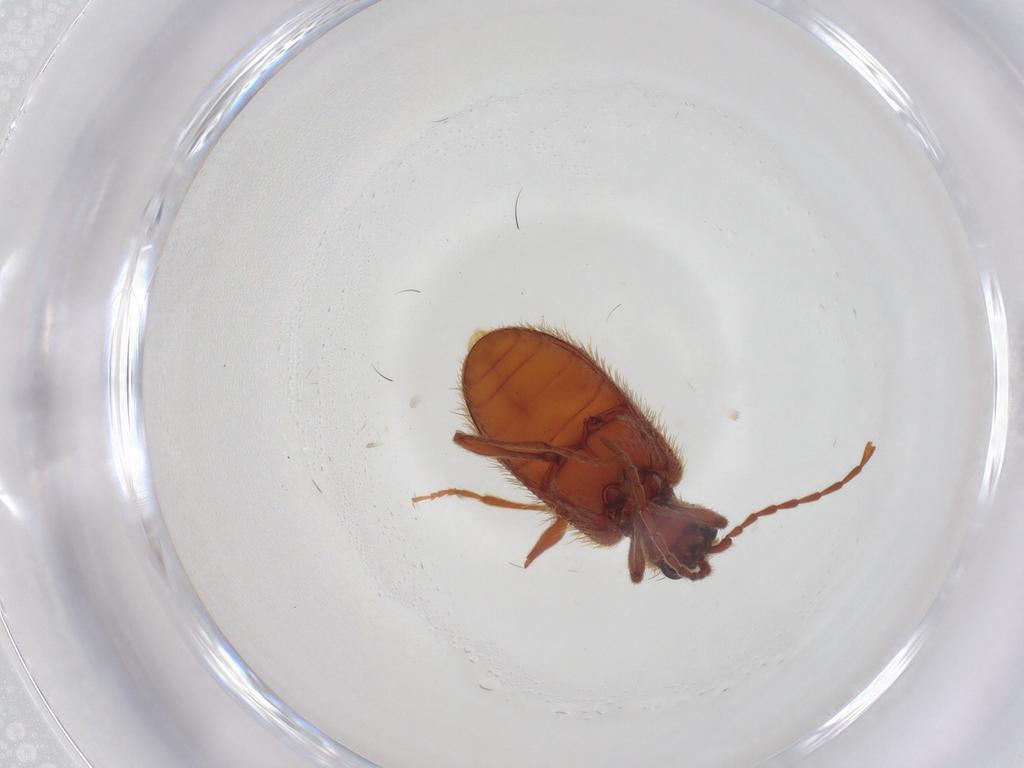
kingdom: Animalia
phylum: Arthropoda
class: Insecta
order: Coleoptera
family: Ptinidae
